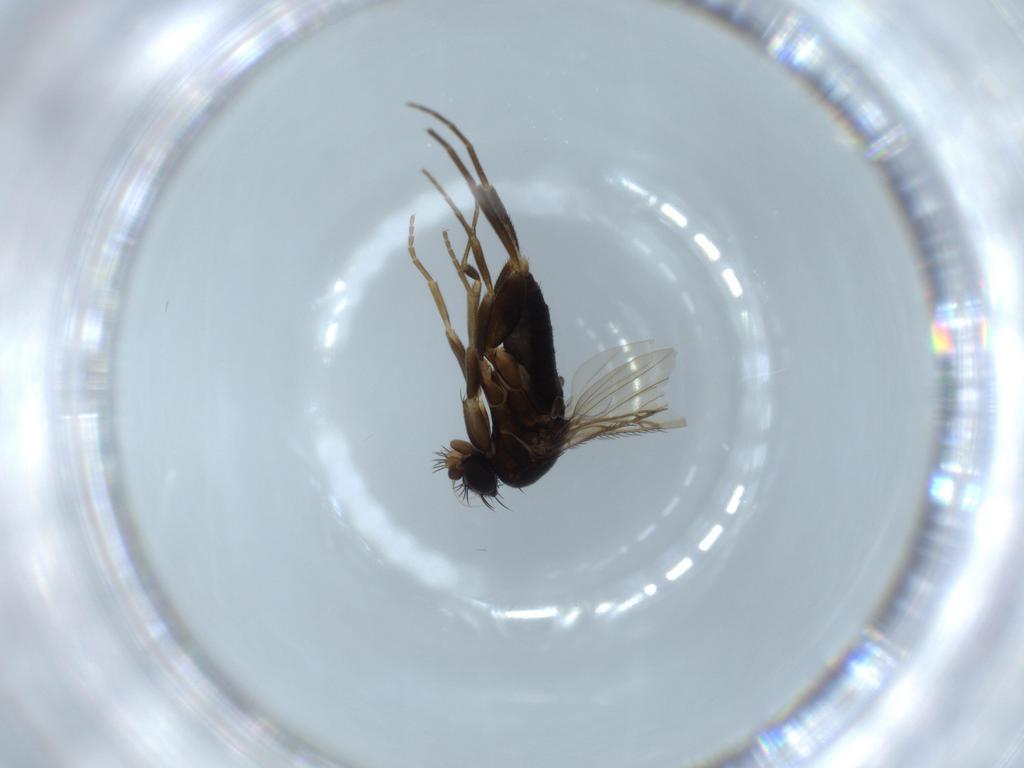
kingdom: Animalia
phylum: Arthropoda
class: Insecta
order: Diptera
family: Phoridae
